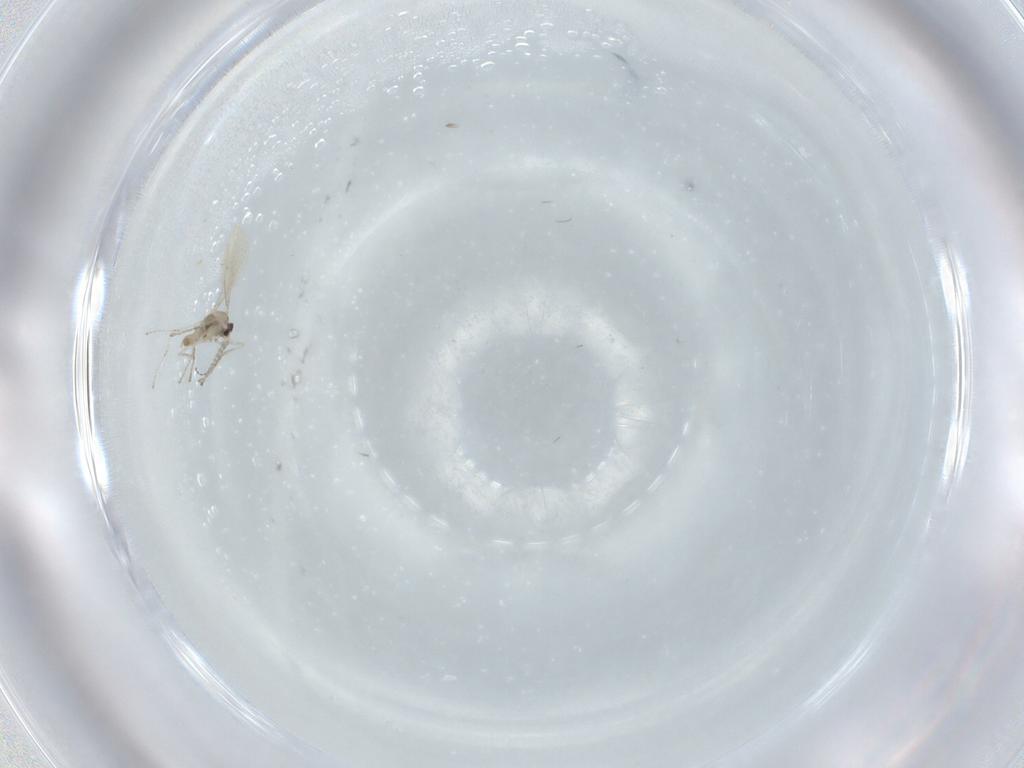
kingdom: Animalia
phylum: Arthropoda
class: Insecta
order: Diptera
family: Cecidomyiidae
